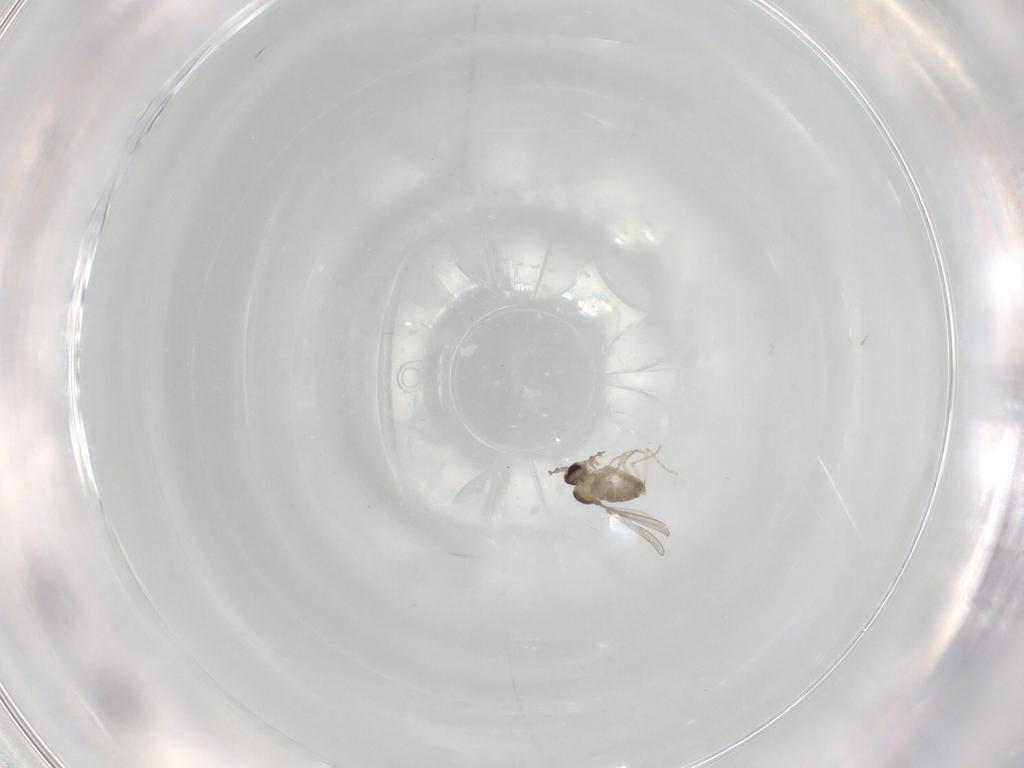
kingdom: Animalia
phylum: Arthropoda
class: Insecta
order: Diptera
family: Cecidomyiidae
